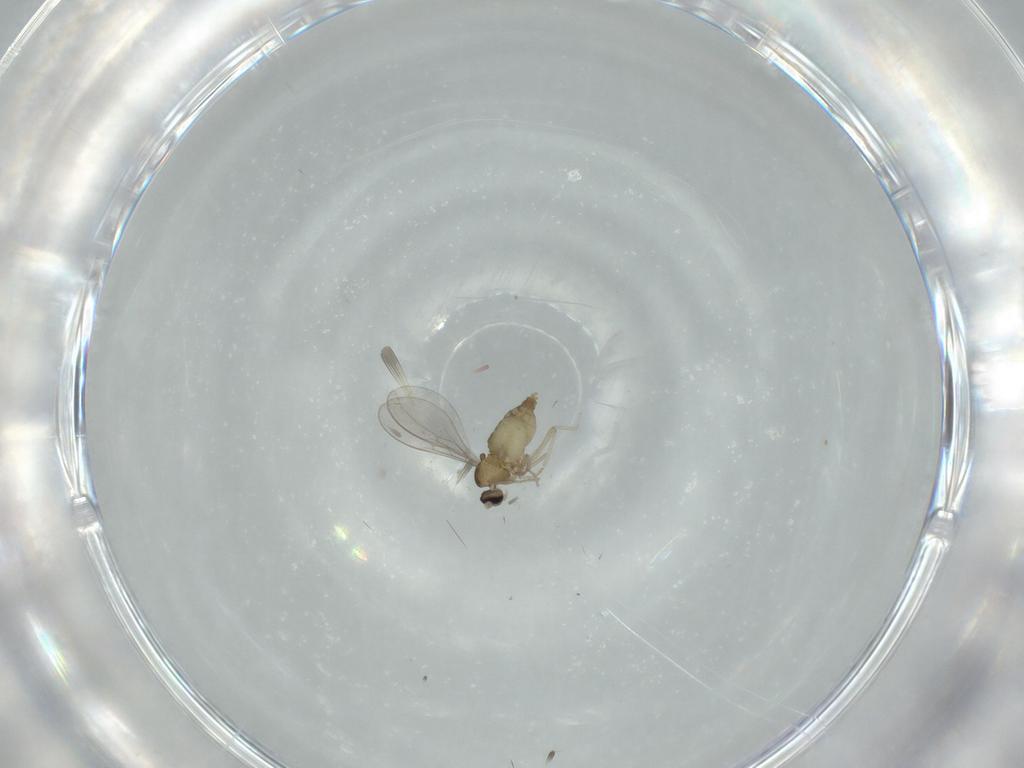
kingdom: Animalia
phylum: Arthropoda
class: Insecta
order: Diptera
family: Cecidomyiidae
